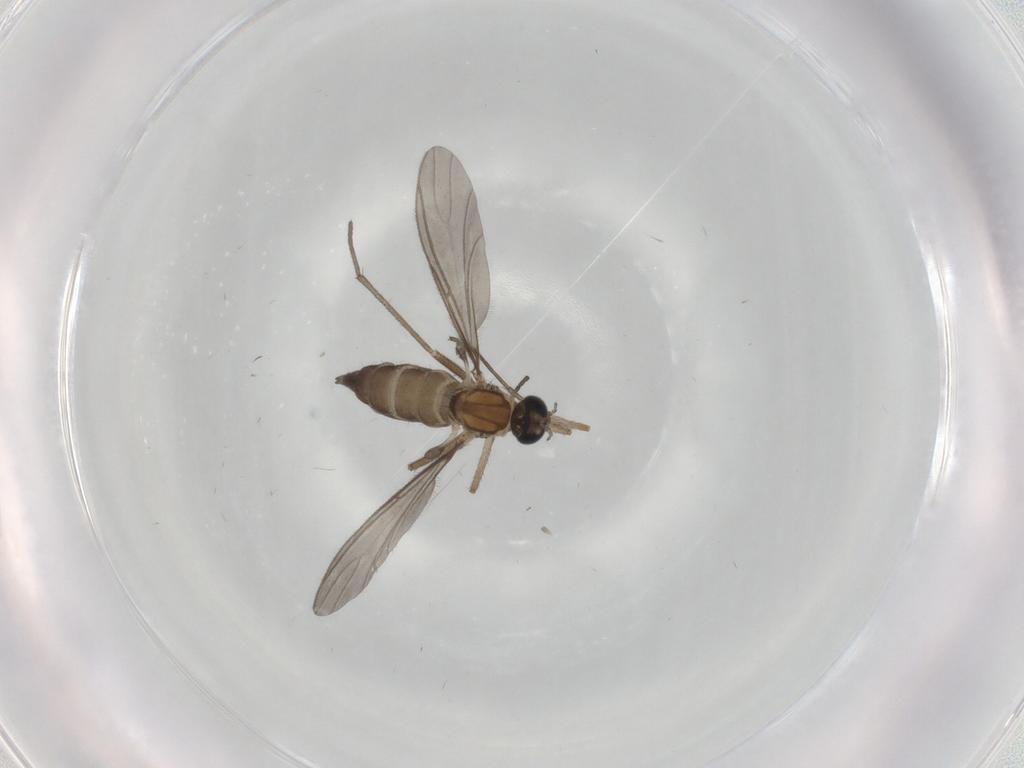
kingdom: Animalia
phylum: Arthropoda
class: Insecta
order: Diptera
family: Sciaridae
